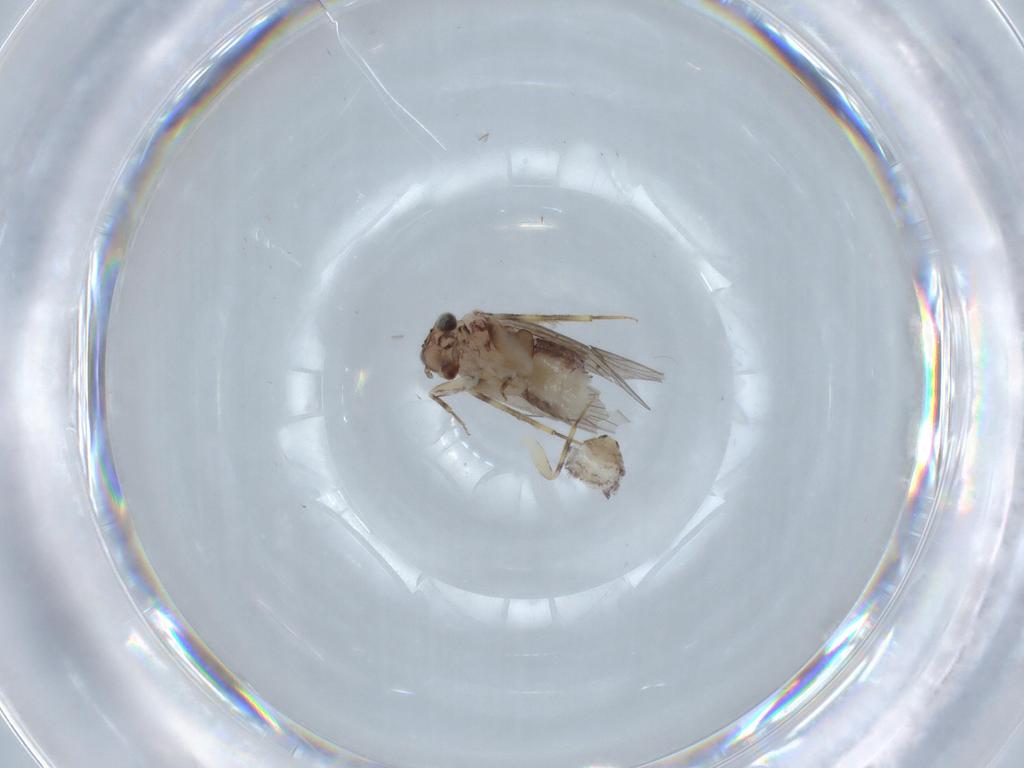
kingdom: Animalia
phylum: Arthropoda
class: Insecta
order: Psocodea
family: Lepidopsocidae
